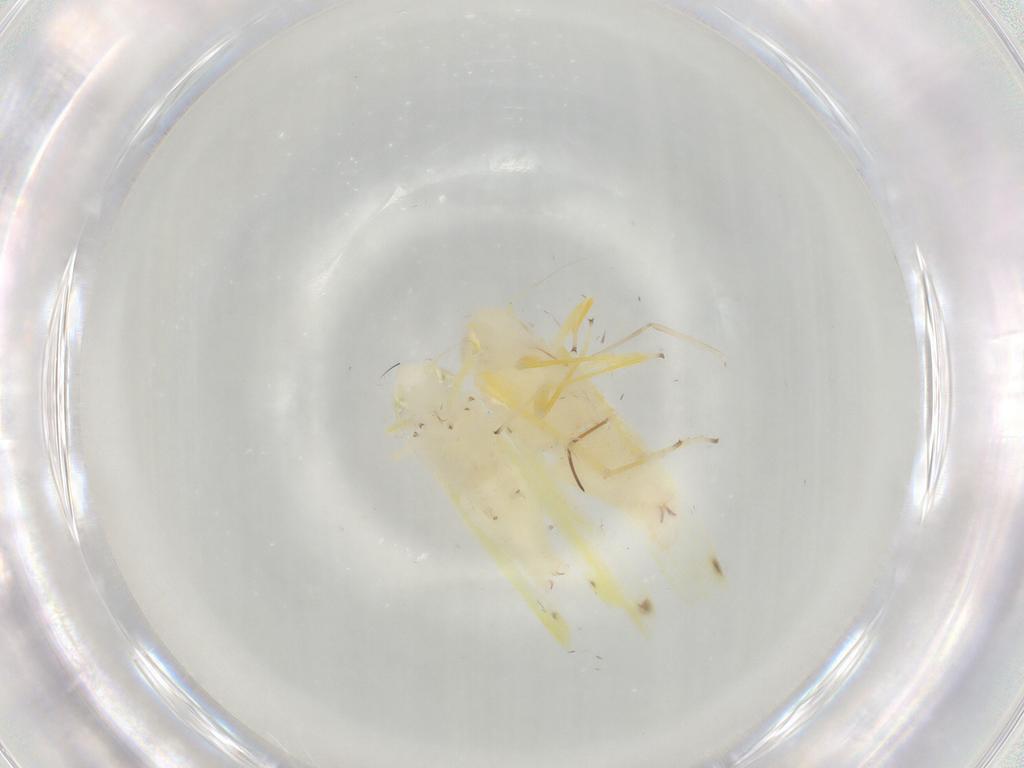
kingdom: Animalia
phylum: Arthropoda
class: Insecta
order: Hemiptera
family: Cicadellidae
